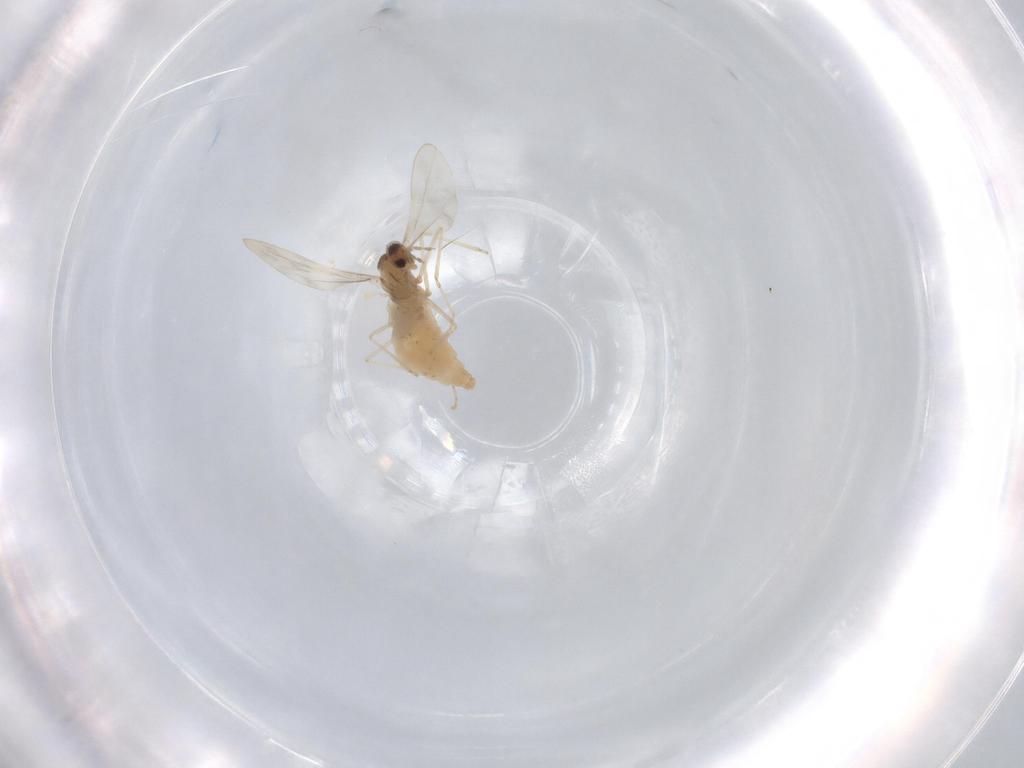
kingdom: Animalia
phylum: Arthropoda
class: Insecta
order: Diptera
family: Cecidomyiidae
